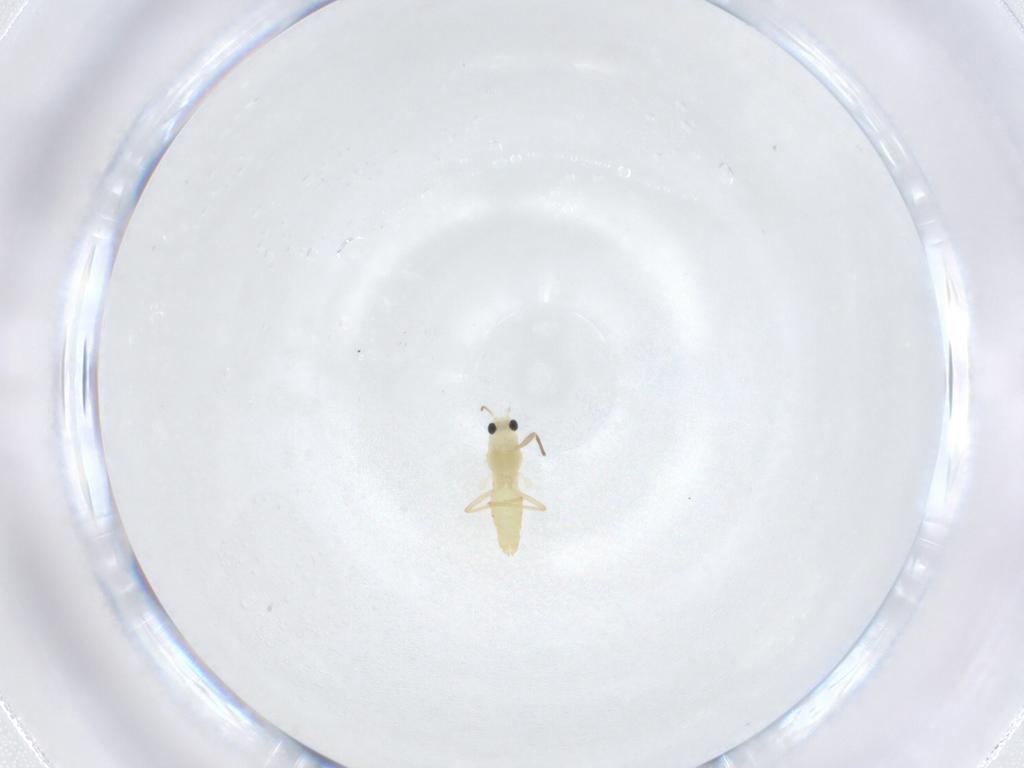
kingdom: Animalia
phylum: Arthropoda
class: Insecta
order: Diptera
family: Chironomidae
